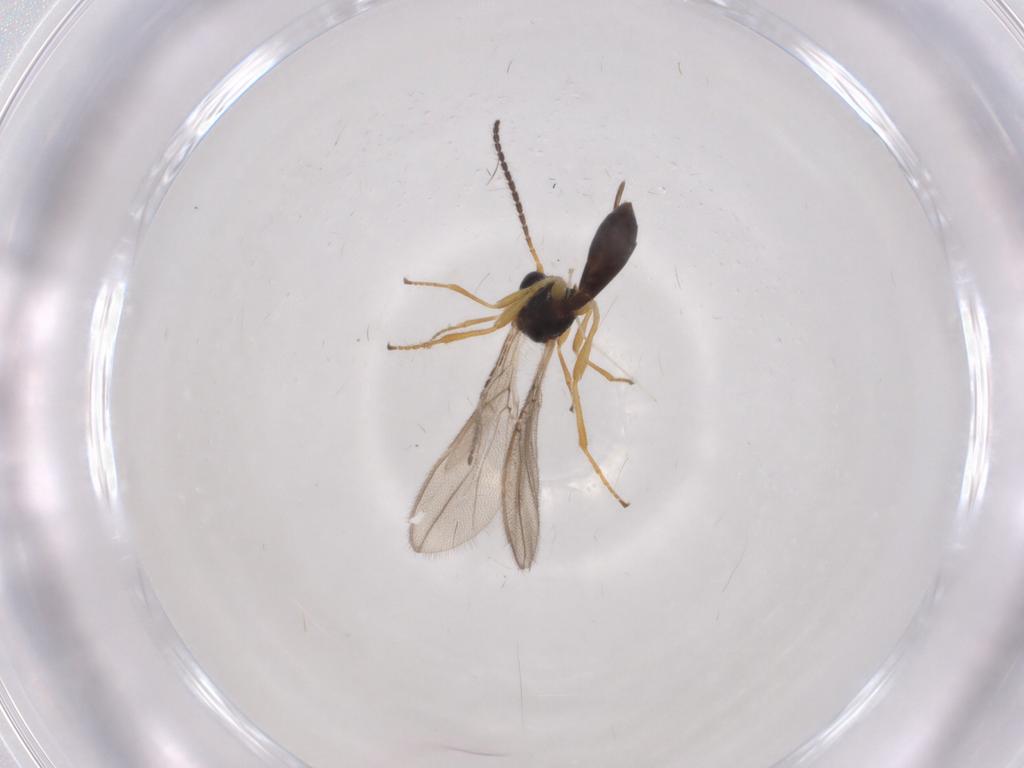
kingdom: Animalia
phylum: Arthropoda
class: Insecta
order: Hymenoptera
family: Braconidae
